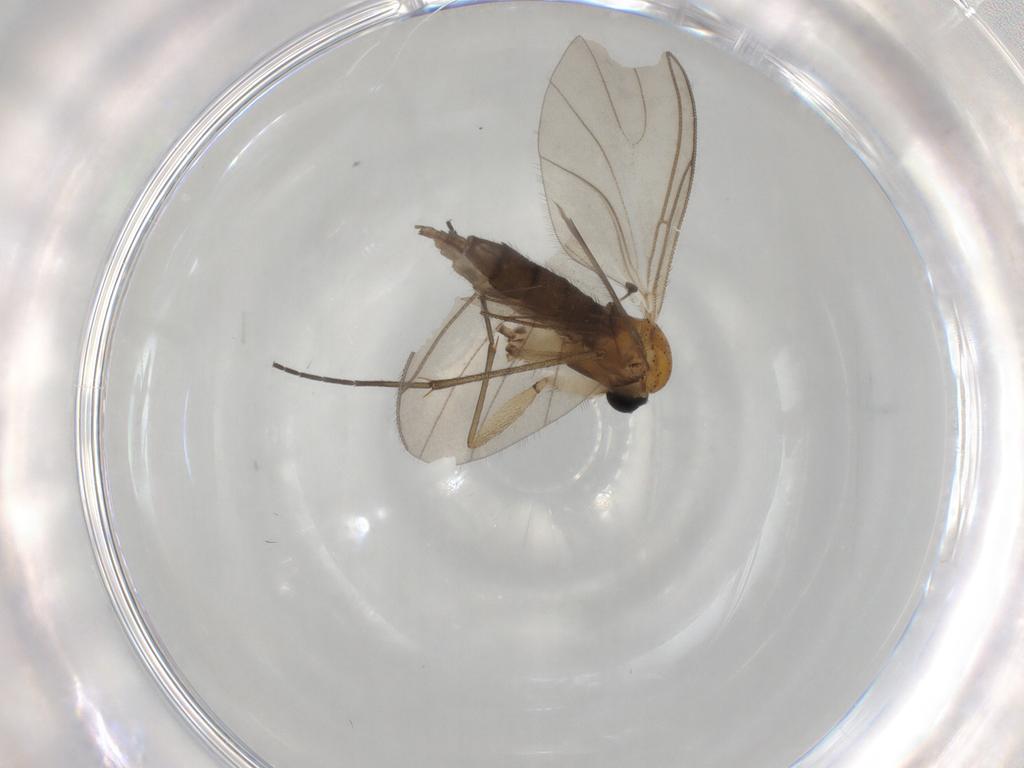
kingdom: Animalia
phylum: Arthropoda
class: Insecta
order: Diptera
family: Sciaridae
